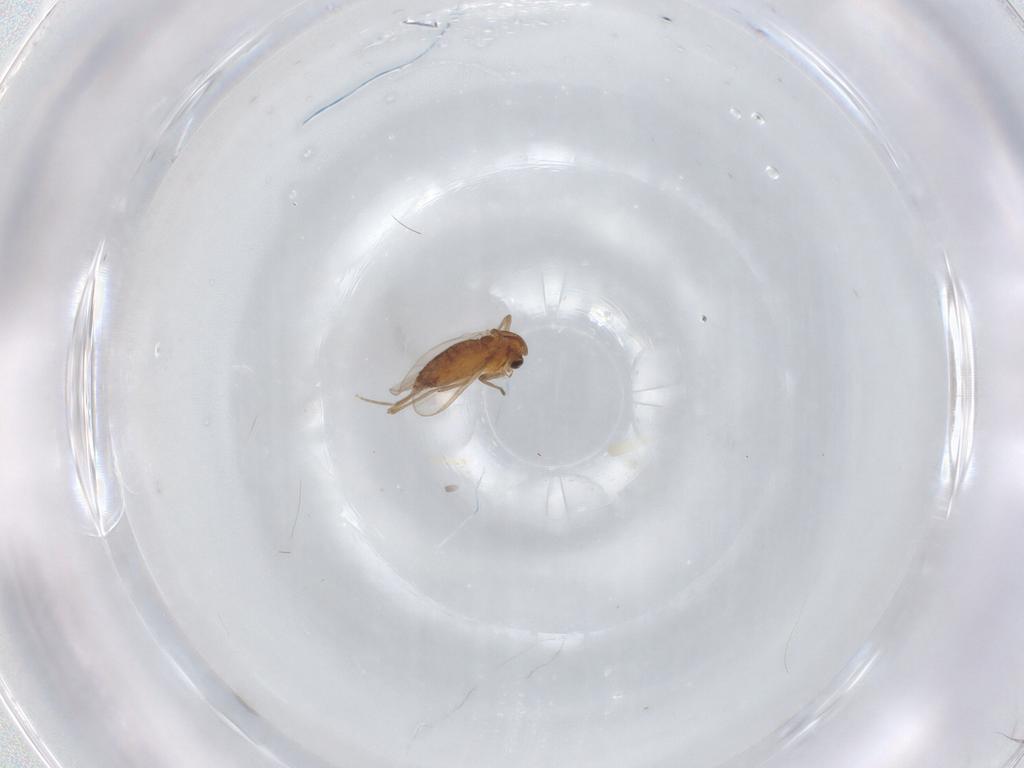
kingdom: Animalia
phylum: Arthropoda
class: Insecta
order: Diptera
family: Chironomidae
